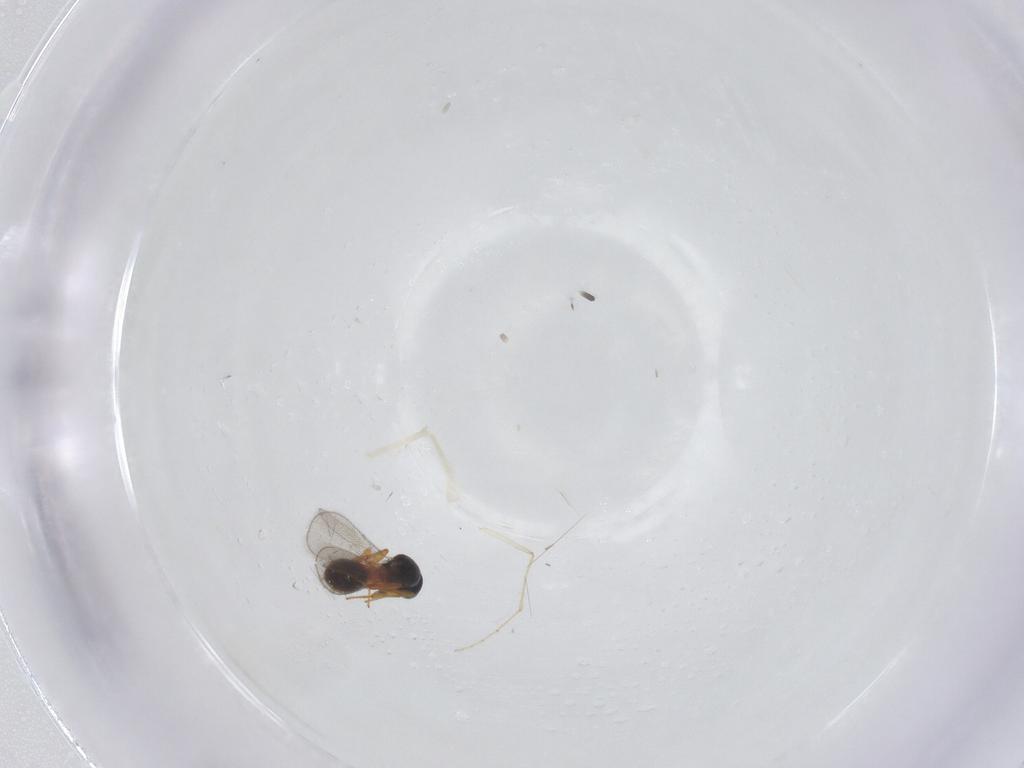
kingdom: Animalia
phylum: Arthropoda
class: Insecta
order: Hymenoptera
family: Platygastridae
